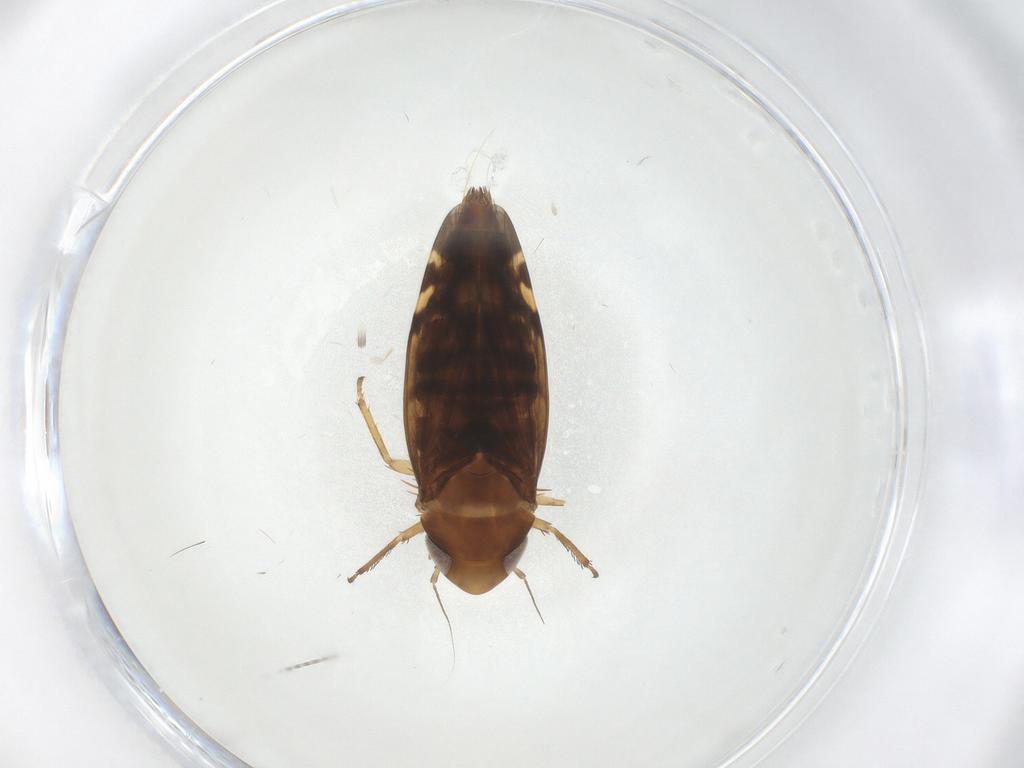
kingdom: Animalia
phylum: Arthropoda
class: Insecta
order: Hemiptera
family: Cicadellidae
